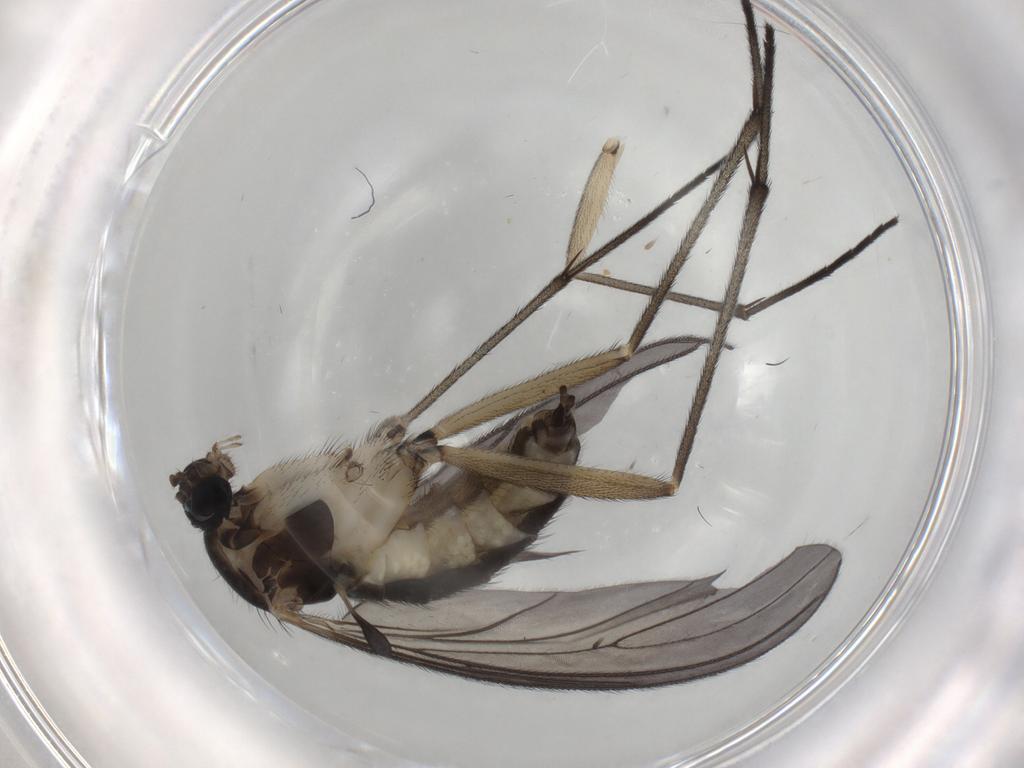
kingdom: Animalia
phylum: Arthropoda
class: Insecta
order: Diptera
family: Sciaridae
